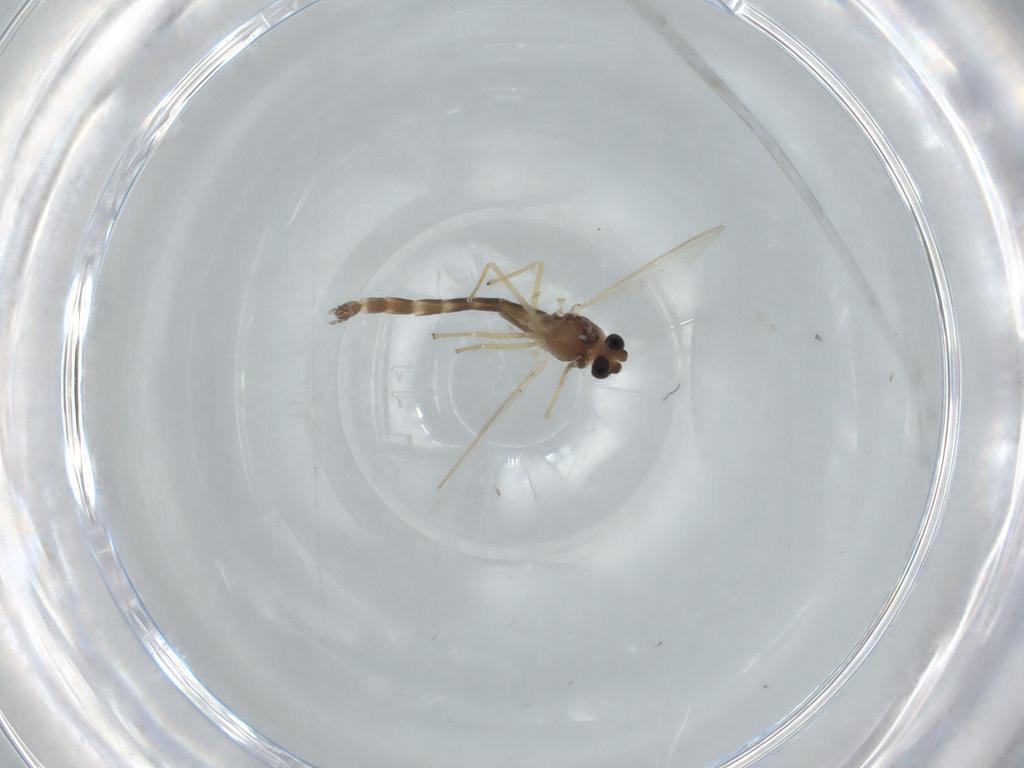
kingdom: Animalia
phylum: Arthropoda
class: Insecta
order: Diptera
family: Chironomidae
